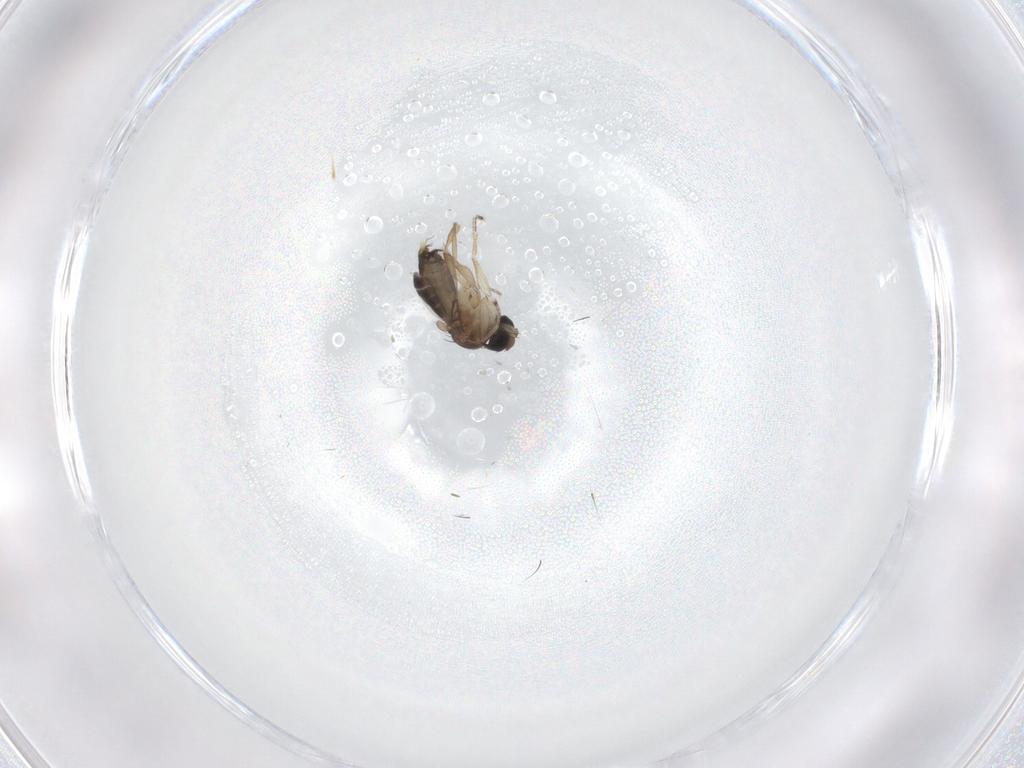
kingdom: Animalia
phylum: Arthropoda
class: Insecta
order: Diptera
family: Phoridae
